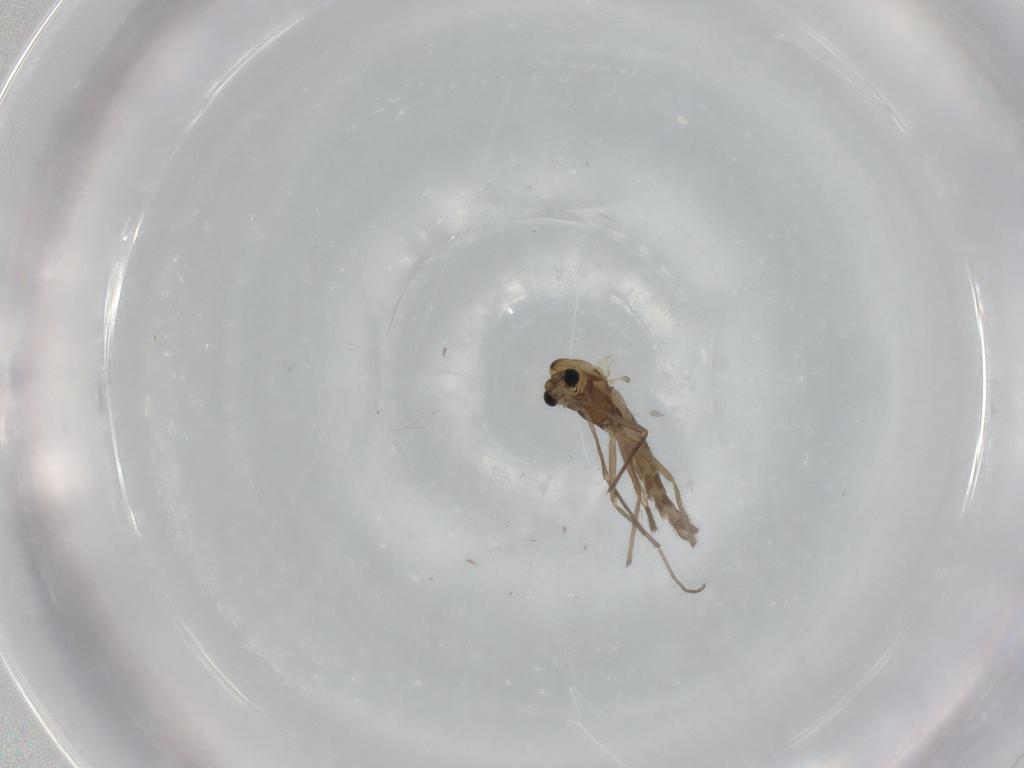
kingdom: Animalia
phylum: Arthropoda
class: Insecta
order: Diptera
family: Chironomidae
